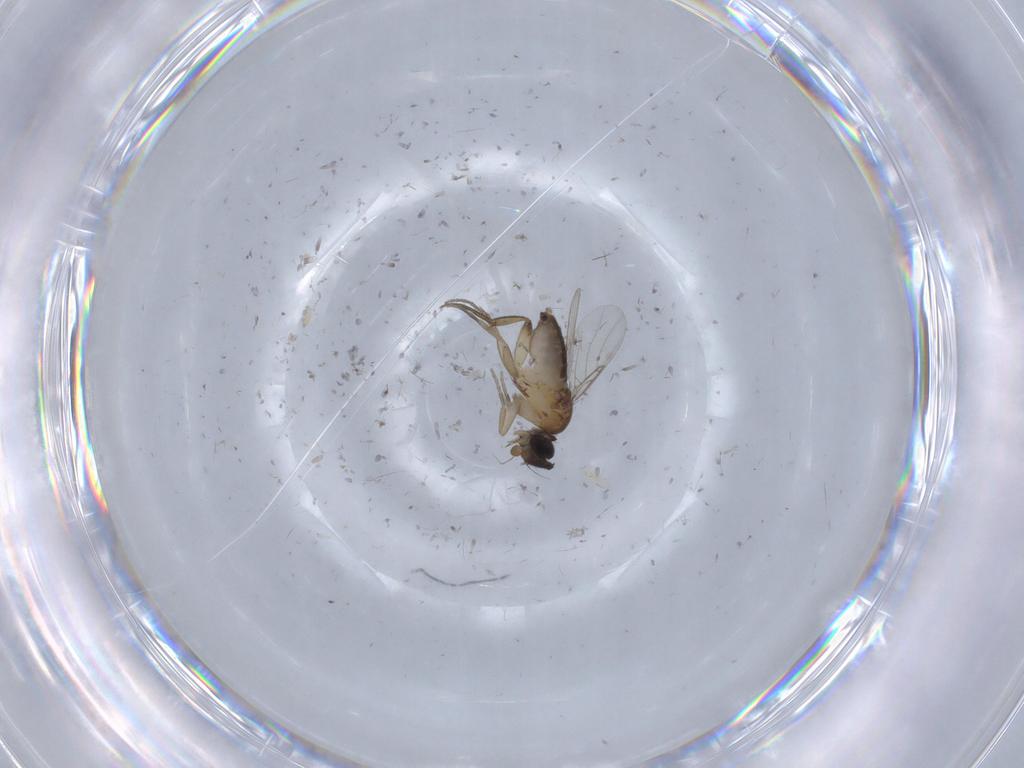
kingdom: Animalia
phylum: Arthropoda
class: Insecta
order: Diptera
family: Phoridae
